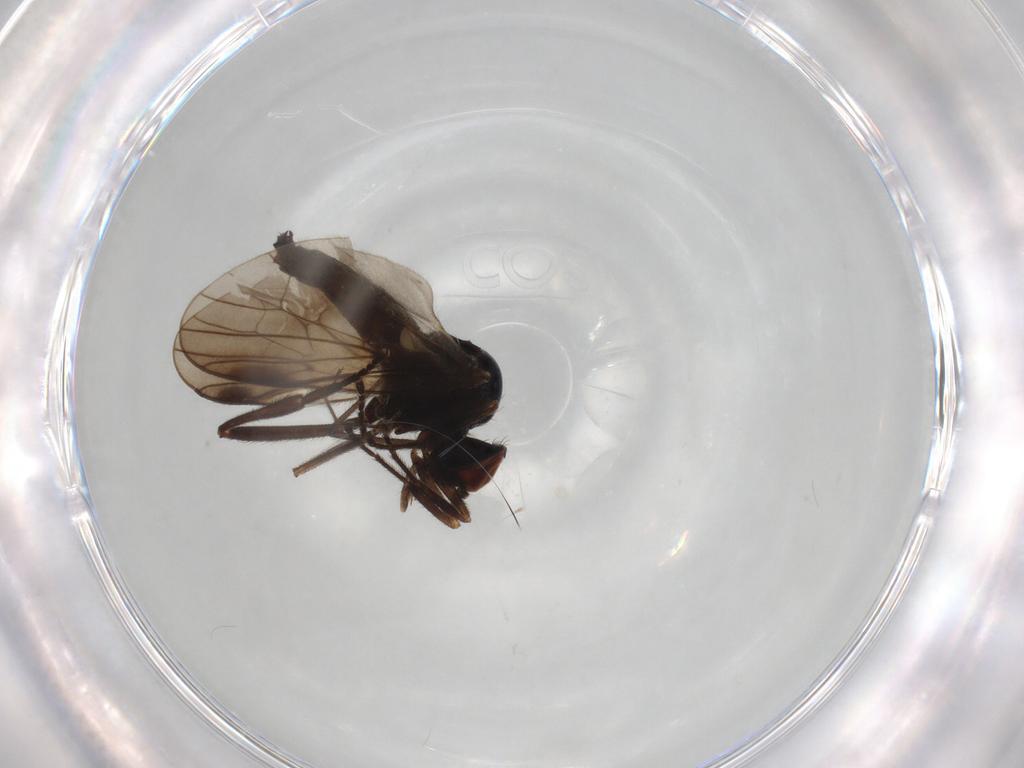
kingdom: Animalia
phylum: Arthropoda
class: Insecta
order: Diptera
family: Hybotidae
